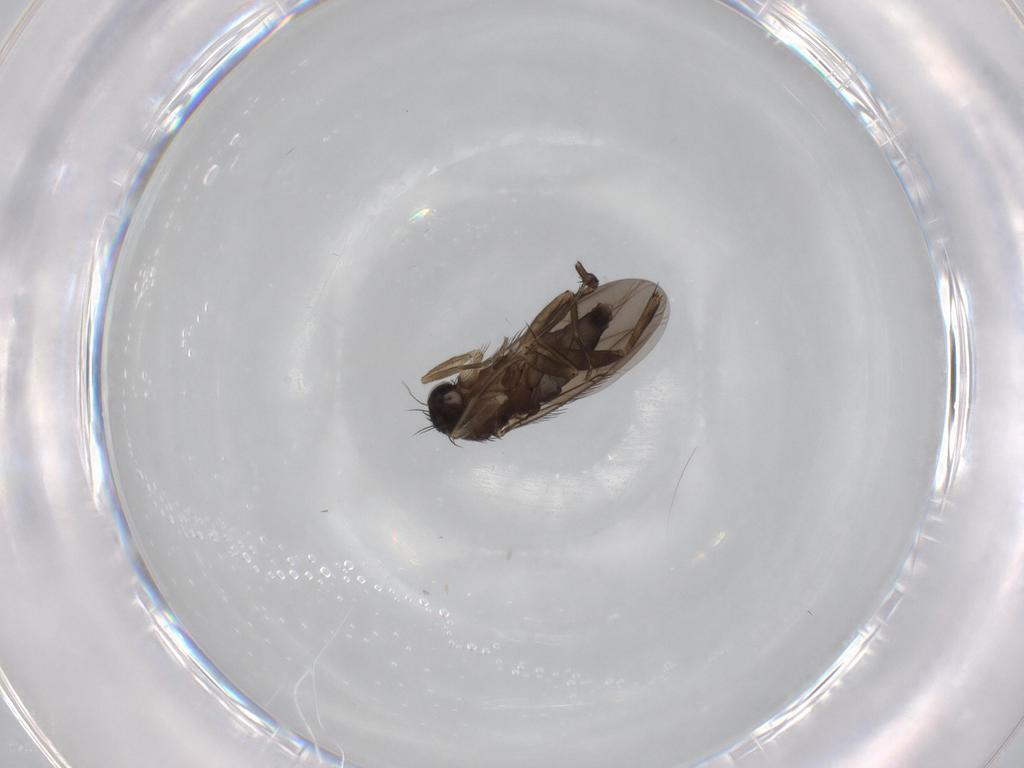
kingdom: Animalia
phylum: Arthropoda
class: Insecta
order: Diptera
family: Phoridae
